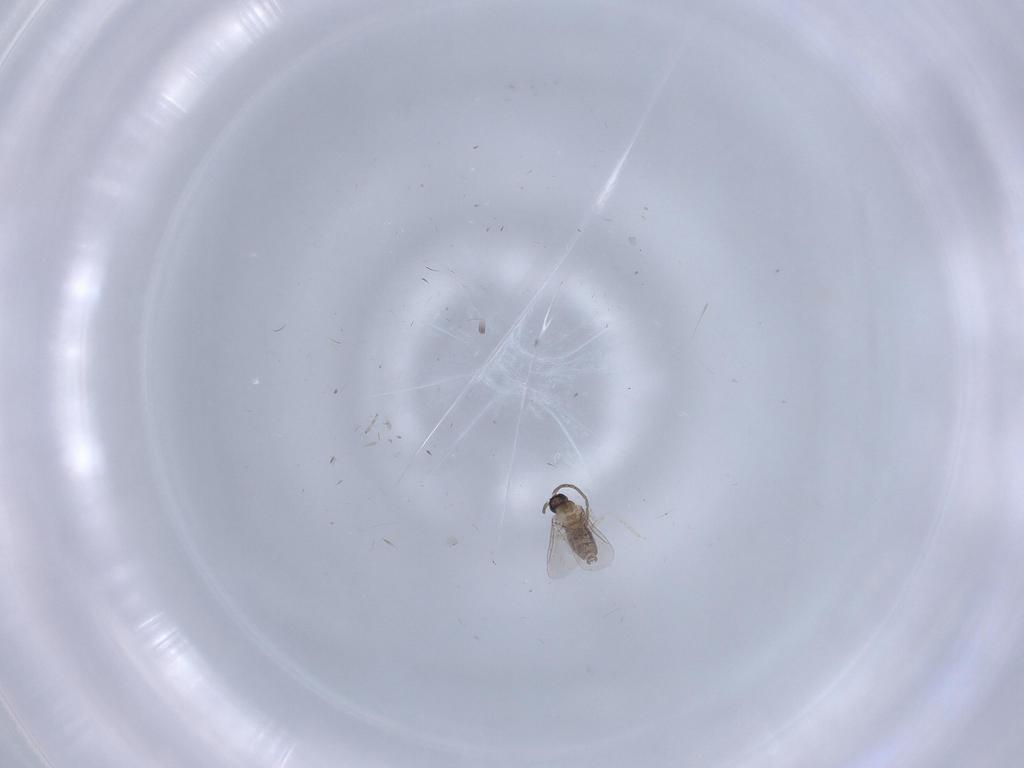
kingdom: Animalia
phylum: Arthropoda
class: Insecta
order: Diptera
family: Cecidomyiidae
